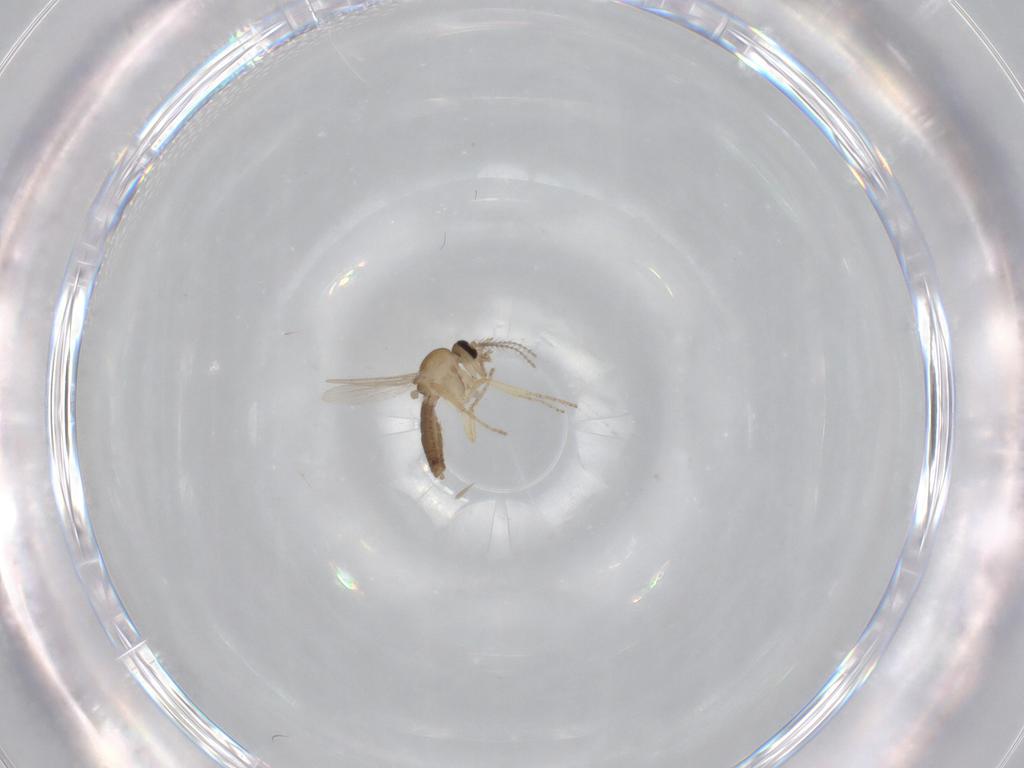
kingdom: Animalia
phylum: Arthropoda
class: Insecta
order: Diptera
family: Ceratopogonidae
